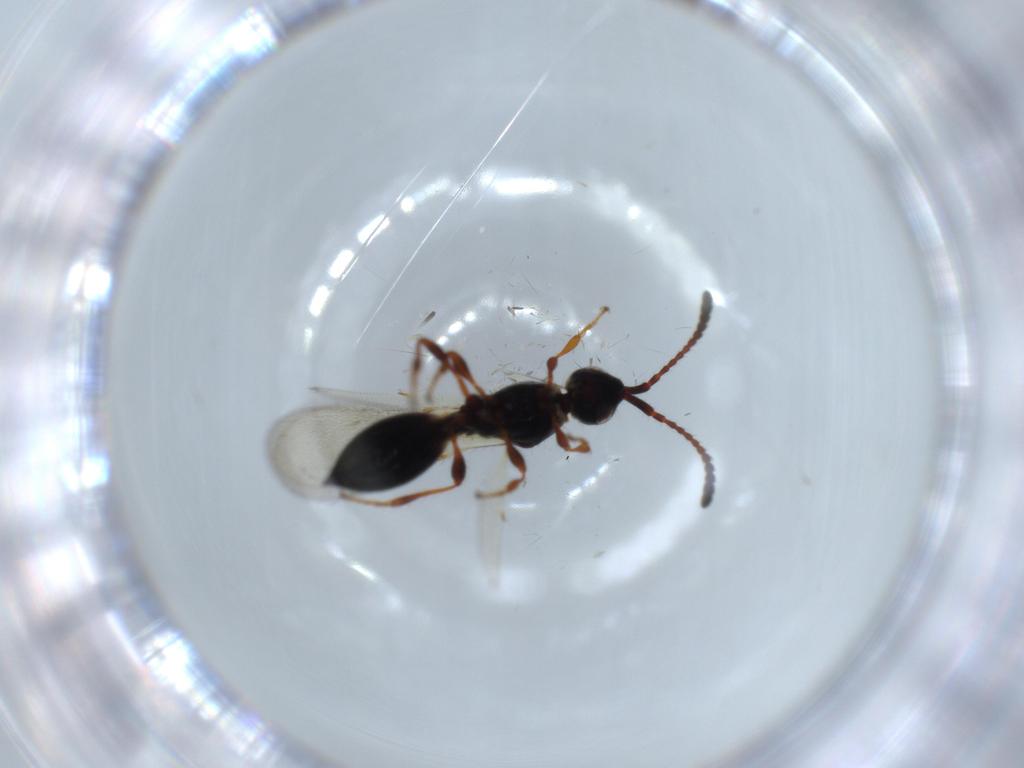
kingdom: Animalia
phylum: Arthropoda
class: Insecta
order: Hymenoptera
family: Diapriidae
